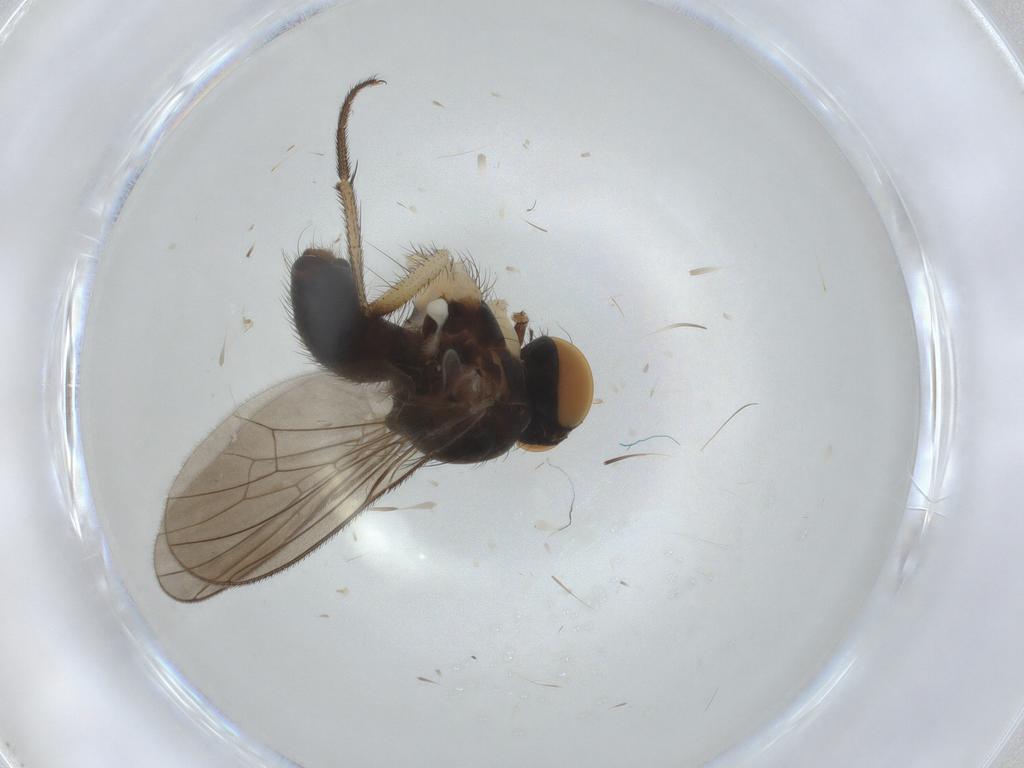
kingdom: Animalia
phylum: Arthropoda
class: Insecta
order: Diptera
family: Muscidae
